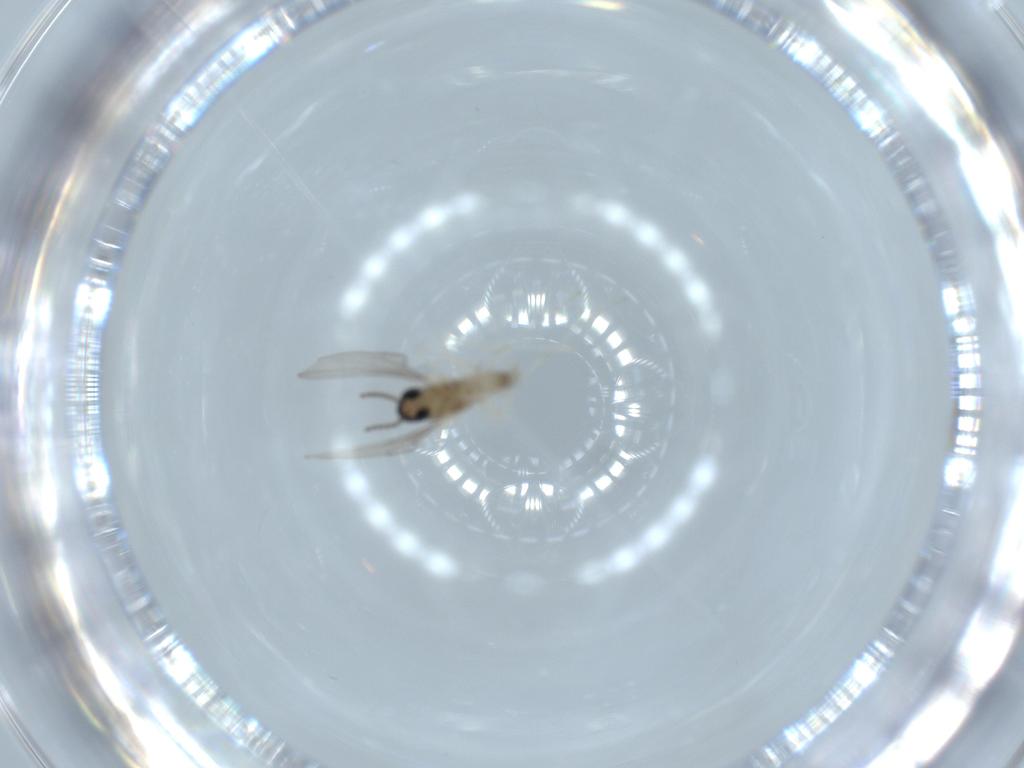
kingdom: Animalia
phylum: Arthropoda
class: Insecta
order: Diptera
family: Cecidomyiidae
